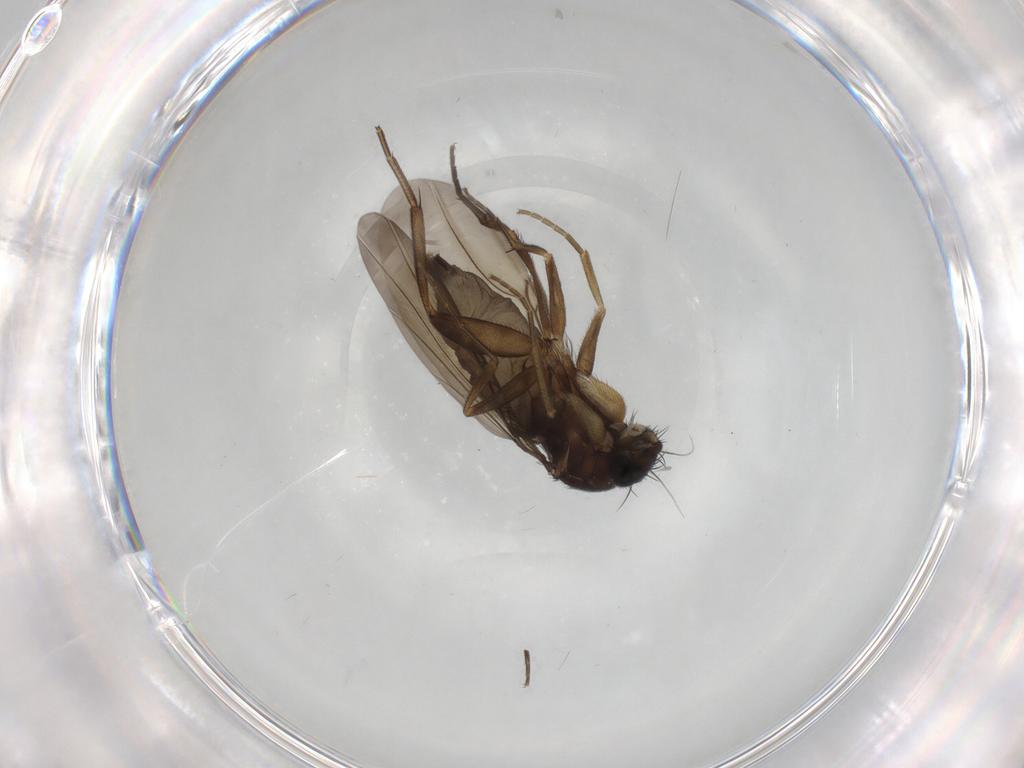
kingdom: Animalia
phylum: Arthropoda
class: Insecta
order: Diptera
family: Phoridae
